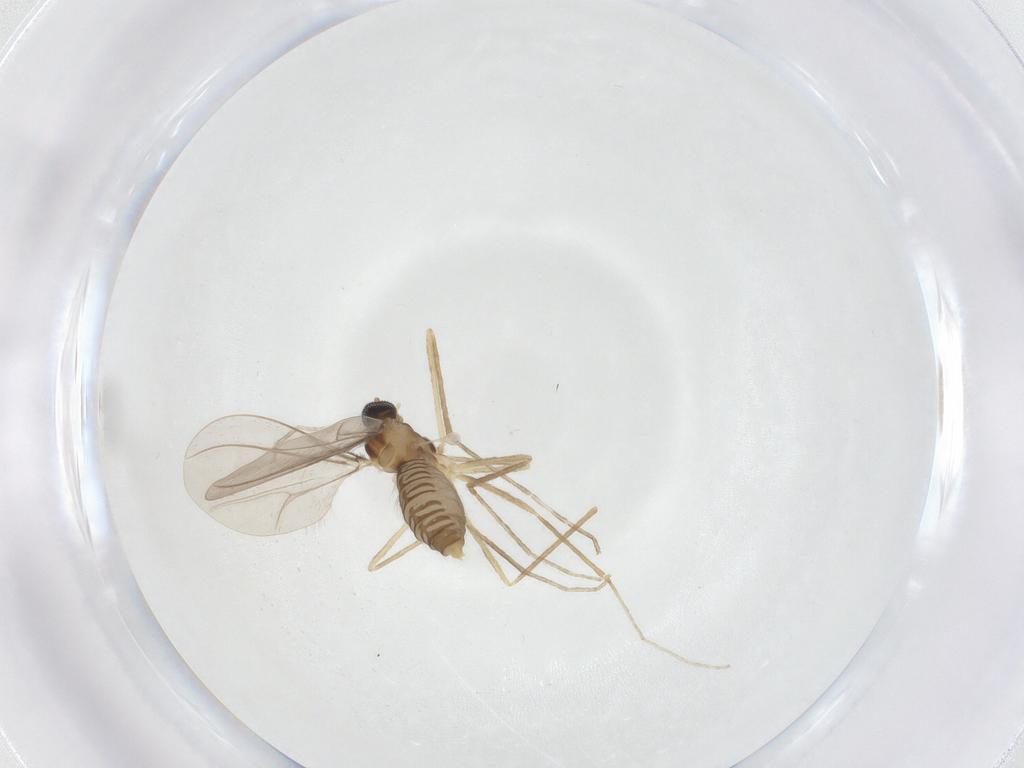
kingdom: Animalia
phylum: Arthropoda
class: Insecta
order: Diptera
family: Cecidomyiidae
